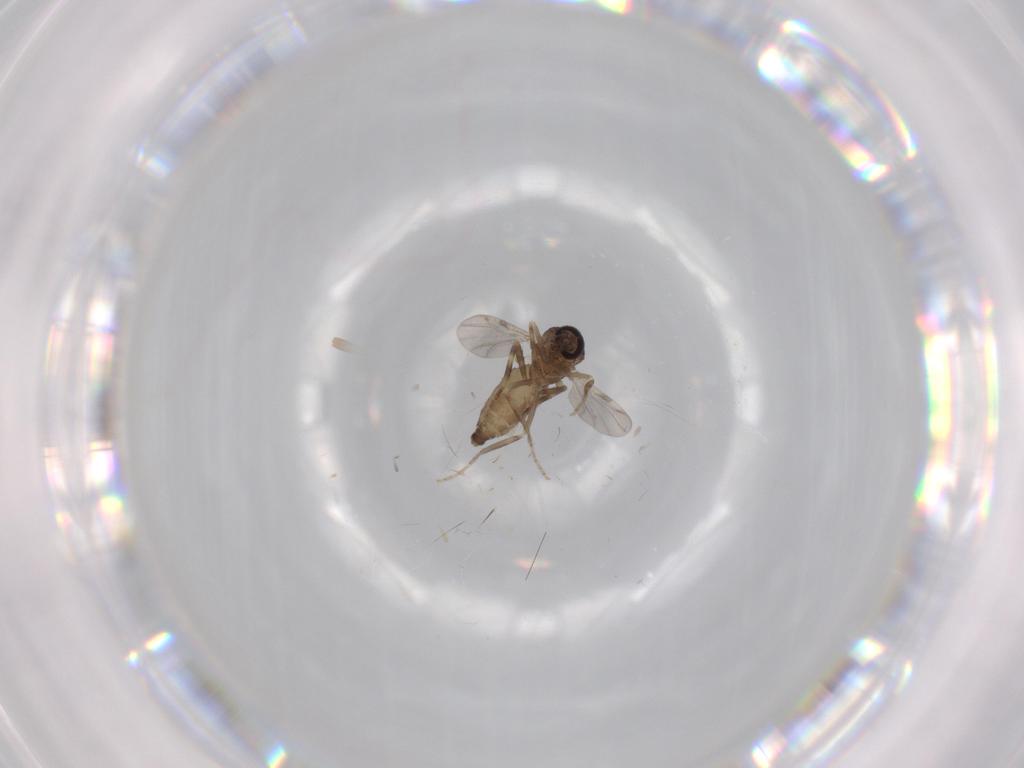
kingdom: Animalia
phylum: Arthropoda
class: Insecta
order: Diptera
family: Ceratopogonidae
